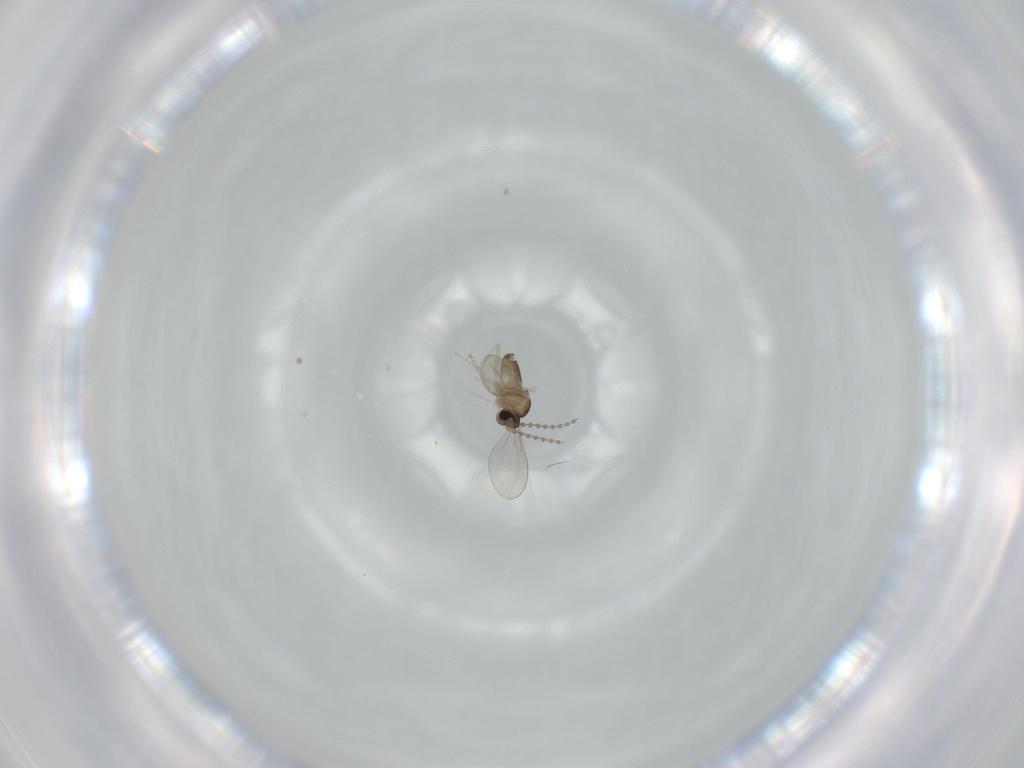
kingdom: Animalia
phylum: Arthropoda
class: Insecta
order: Diptera
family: Cecidomyiidae
